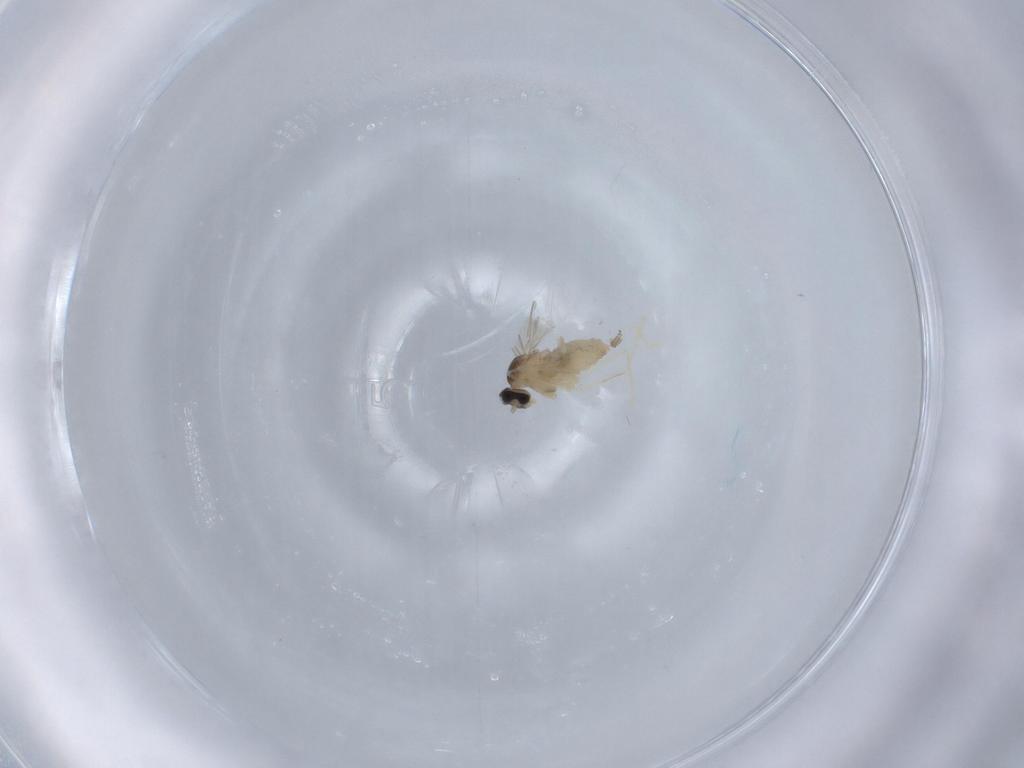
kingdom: Animalia
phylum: Arthropoda
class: Insecta
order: Diptera
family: Cecidomyiidae
